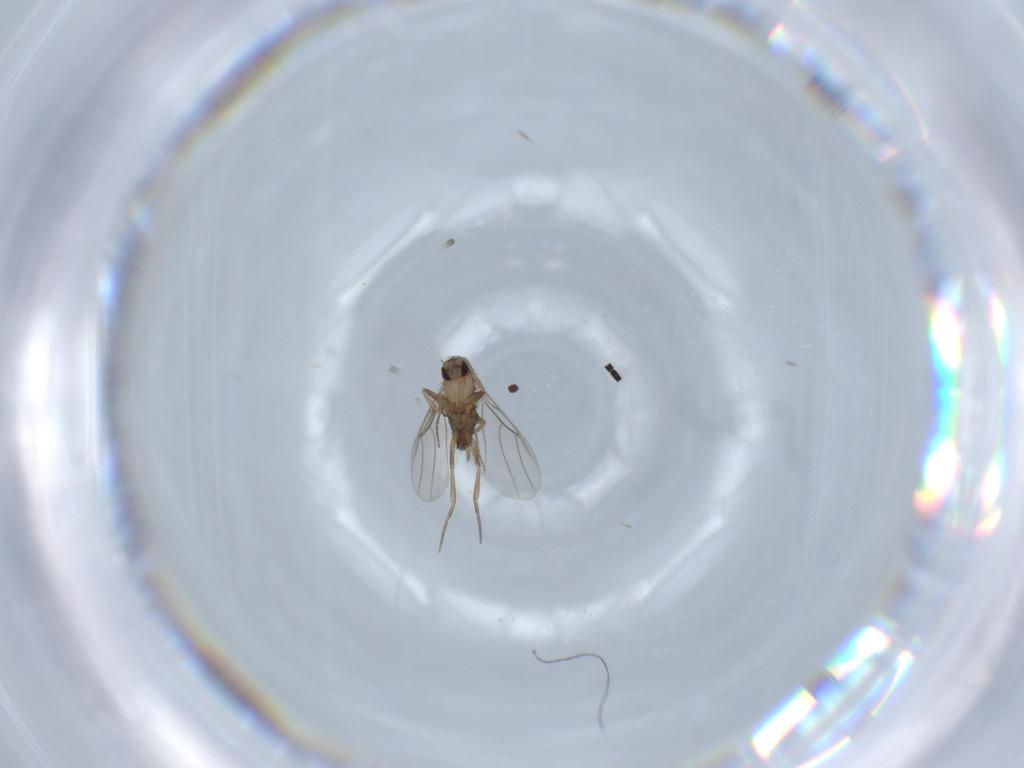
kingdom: Animalia
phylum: Arthropoda
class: Insecta
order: Diptera
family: Phoridae
